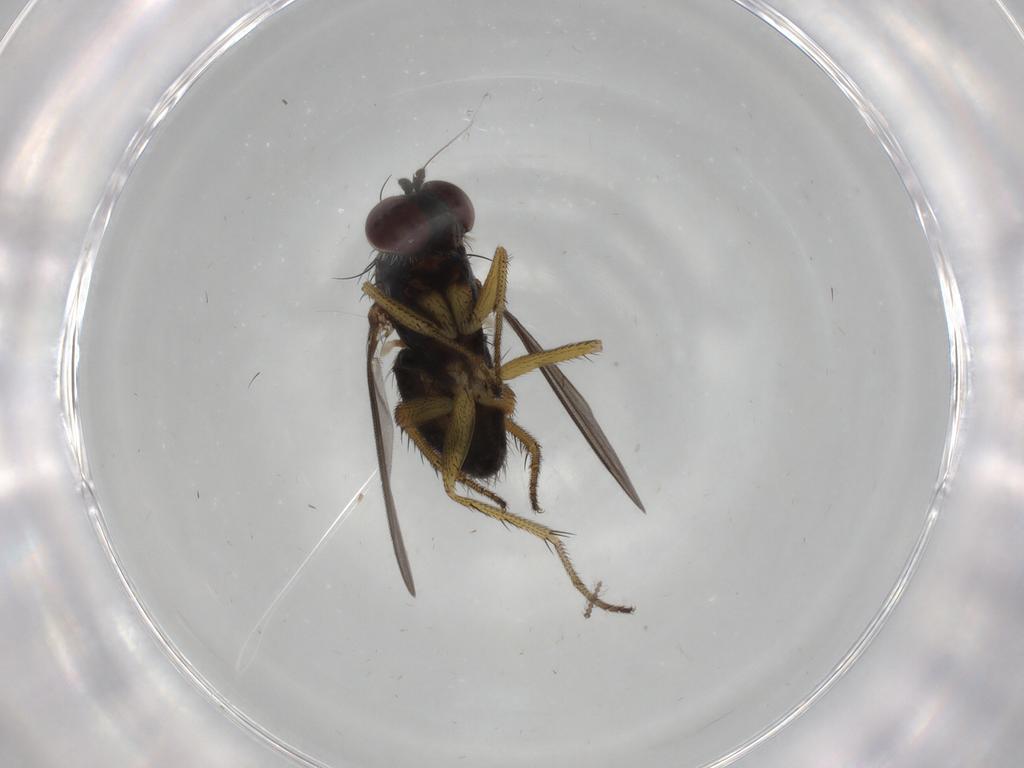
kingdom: Animalia
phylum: Arthropoda
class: Insecta
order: Diptera
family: Dolichopodidae
